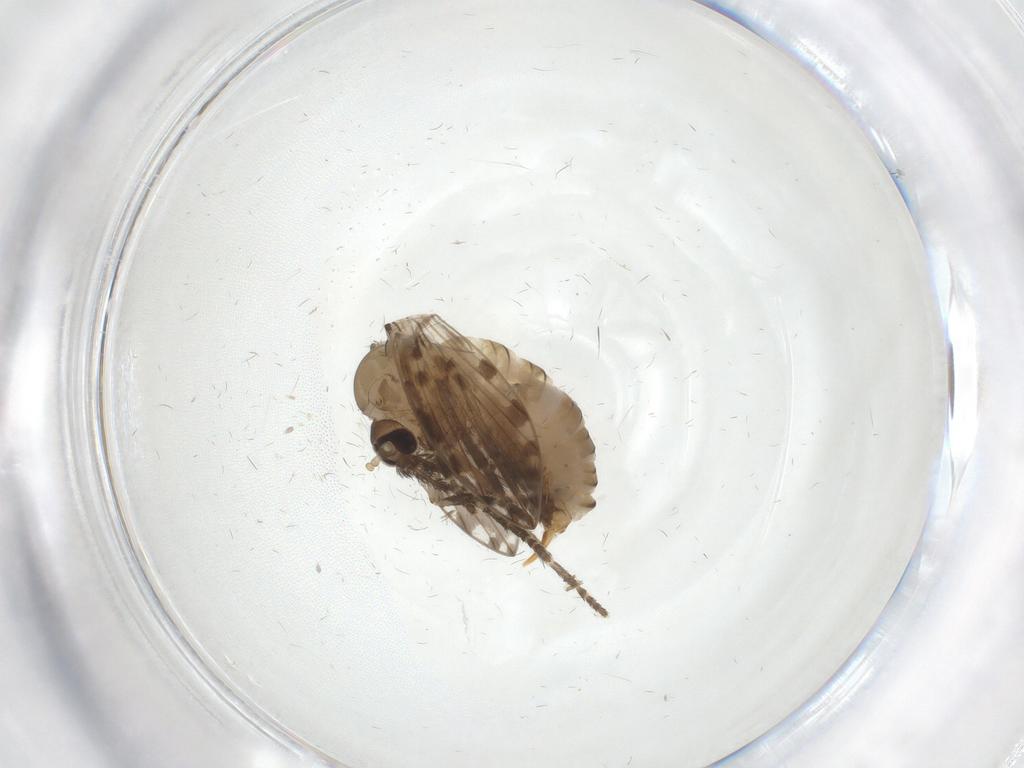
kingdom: Animalia
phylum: Arthropoda
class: Insecta
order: Diptera
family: Psychodidae
